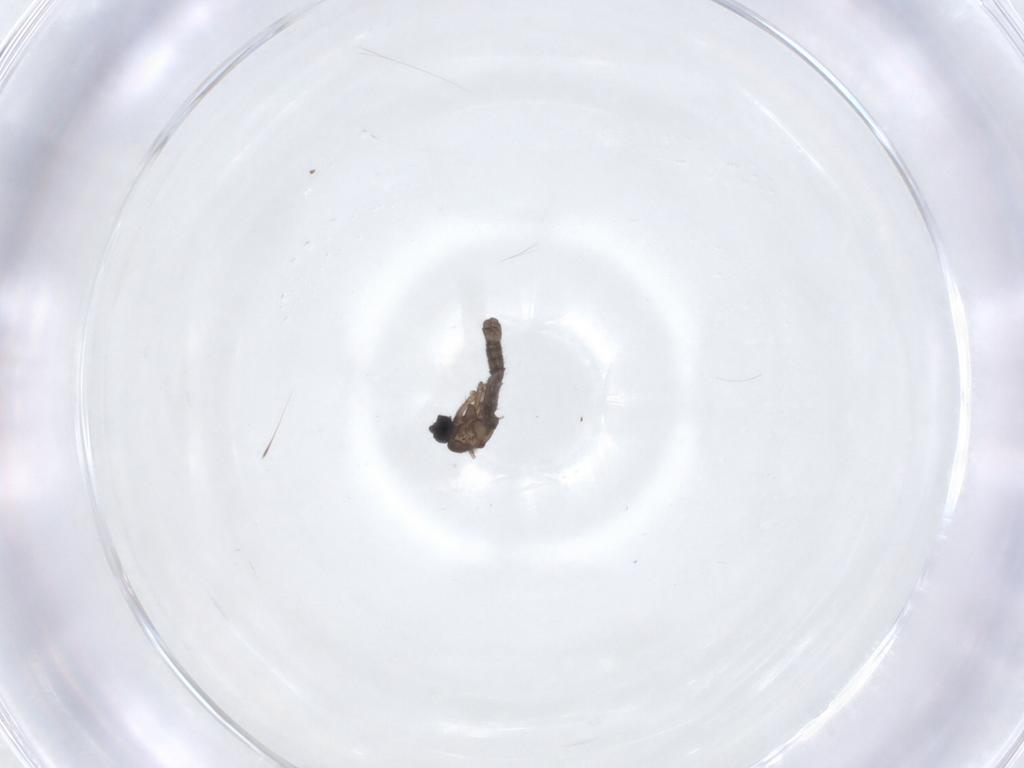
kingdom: Animalia
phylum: Arthropoda
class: Insecta
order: Diptera
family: Sciaridae
